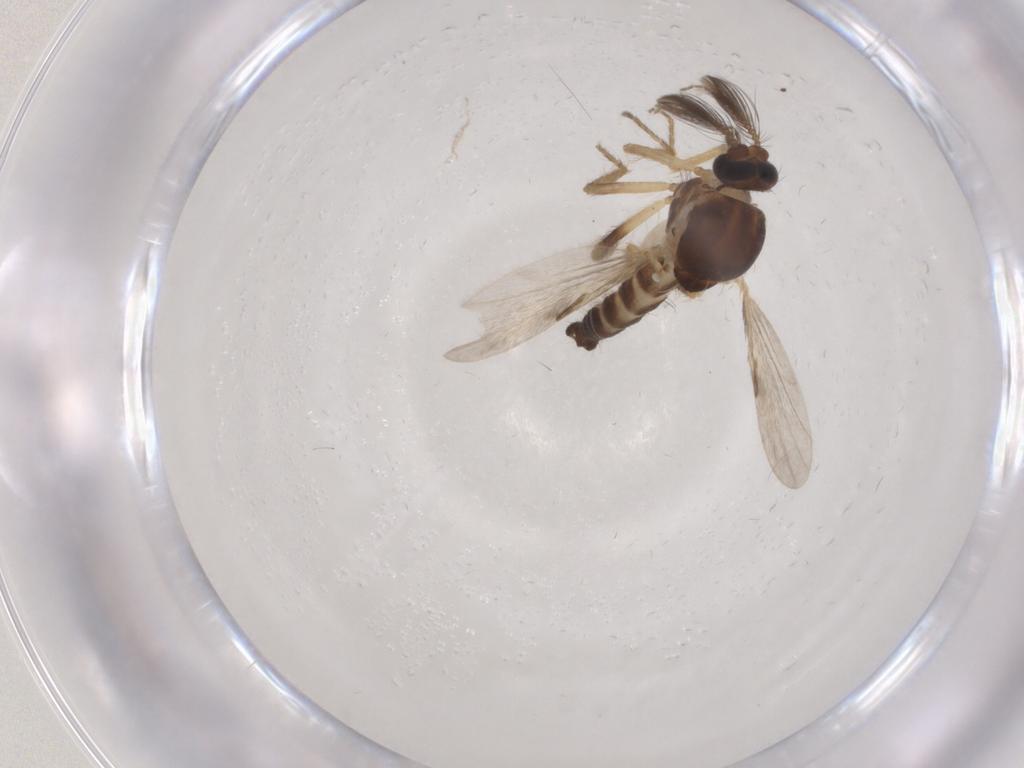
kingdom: Animalia
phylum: Arthropoda
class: Insecta
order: Diptera
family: Ceratopogonidae
